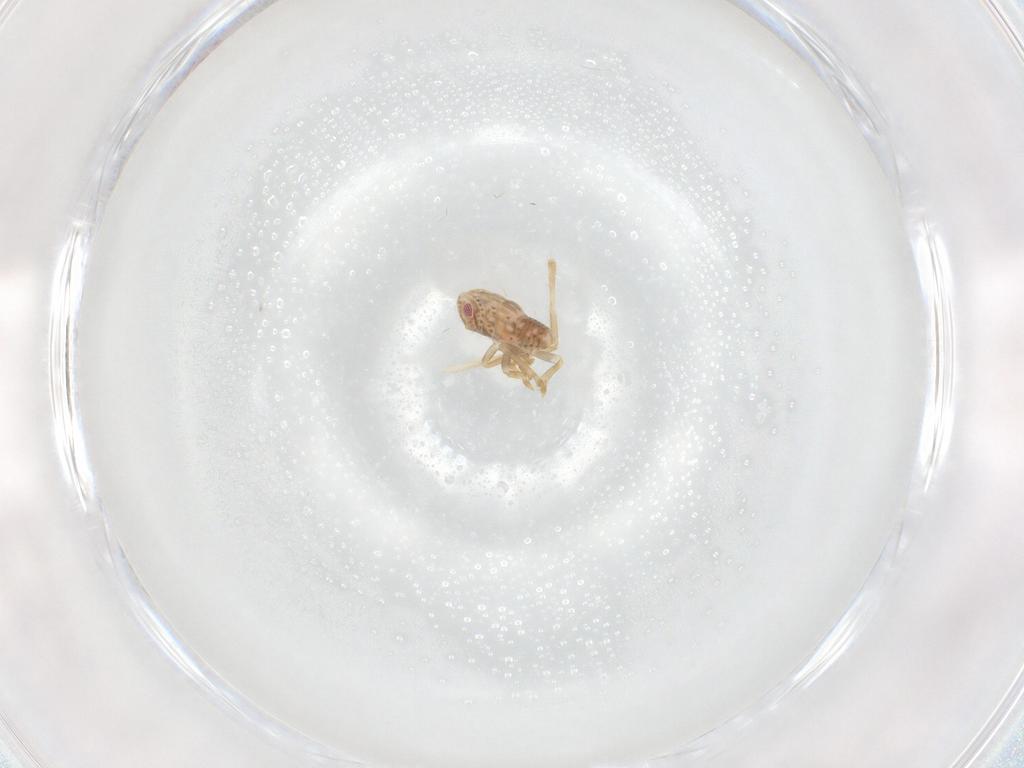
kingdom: Animalia
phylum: Arthropoda
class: Insecta
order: Hemiptera
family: Flatidae
